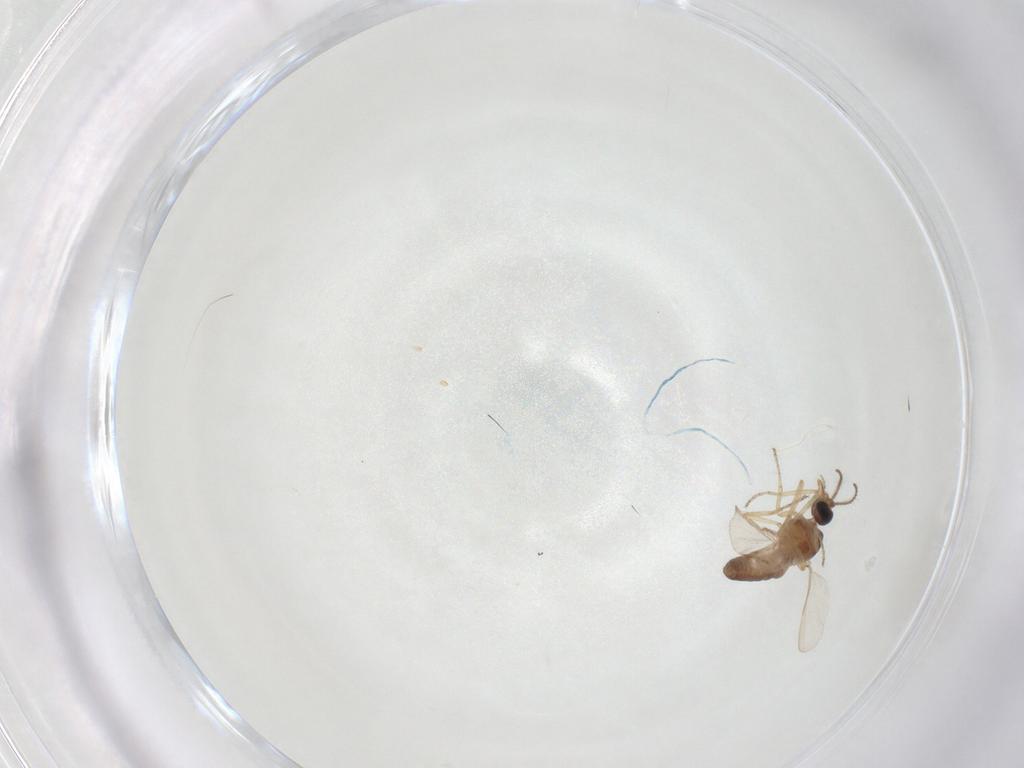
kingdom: Animalia
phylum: Arthropoda
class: Insecta
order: Diptera
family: Ceratopogonidae
